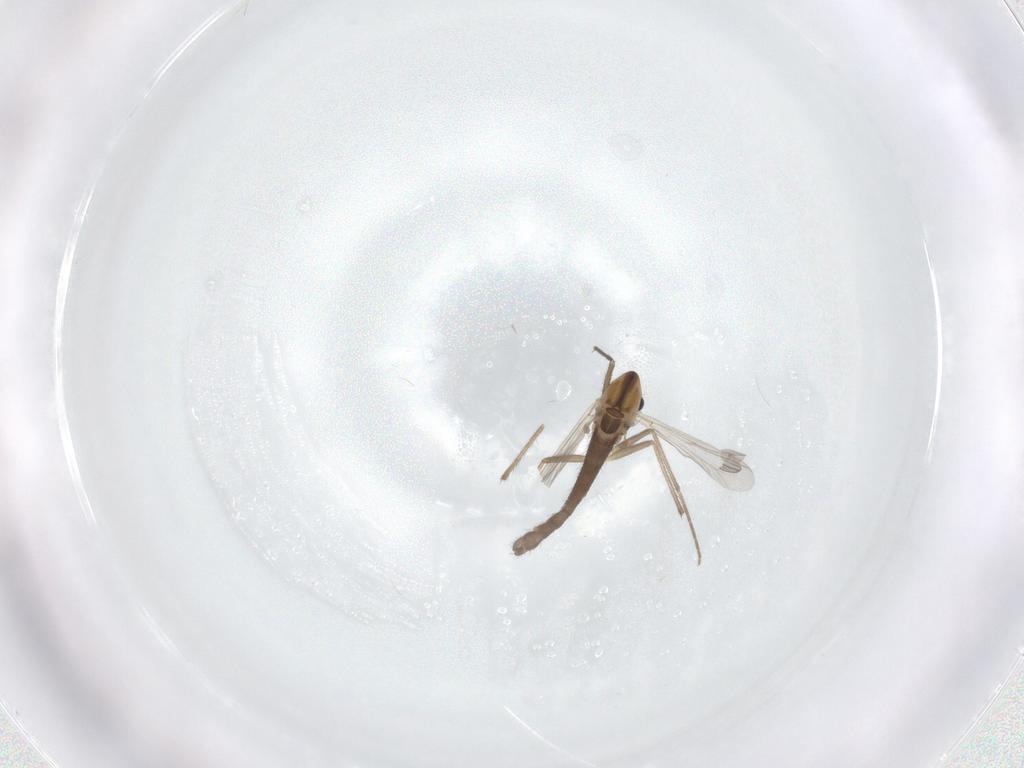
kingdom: Animalia
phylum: Arthropoda
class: Insecta
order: Diptera
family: Chironomidae
